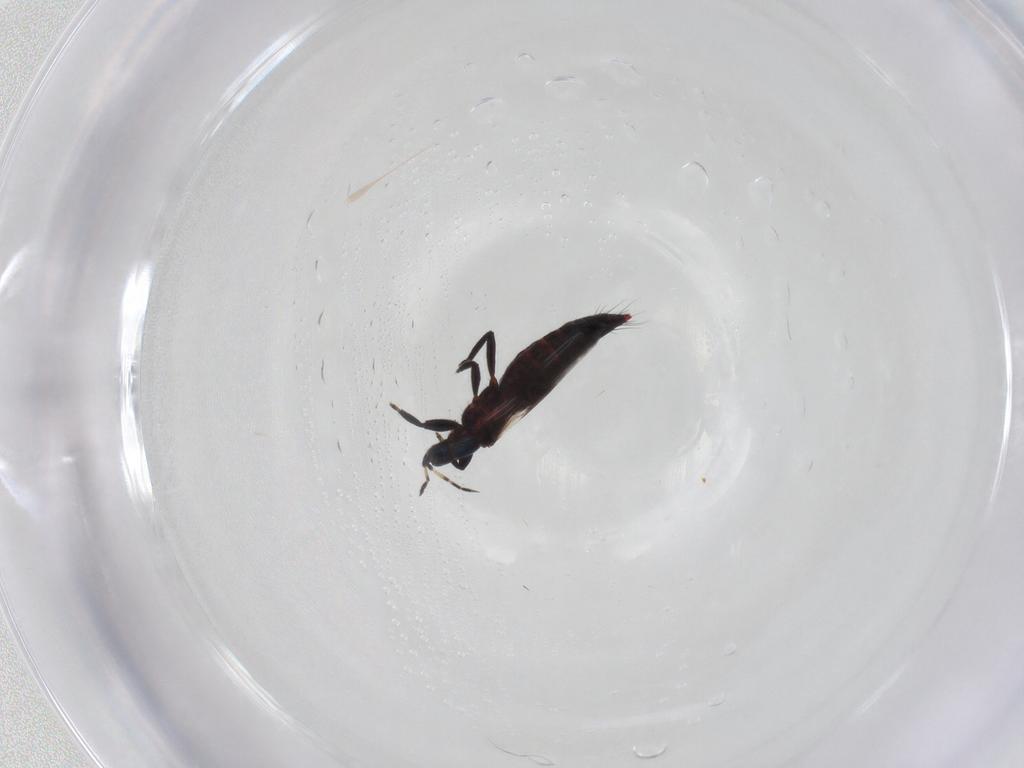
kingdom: Animalia
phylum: Arthropoda
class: Insecta
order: Thysanoptera
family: Aeolothripidae
